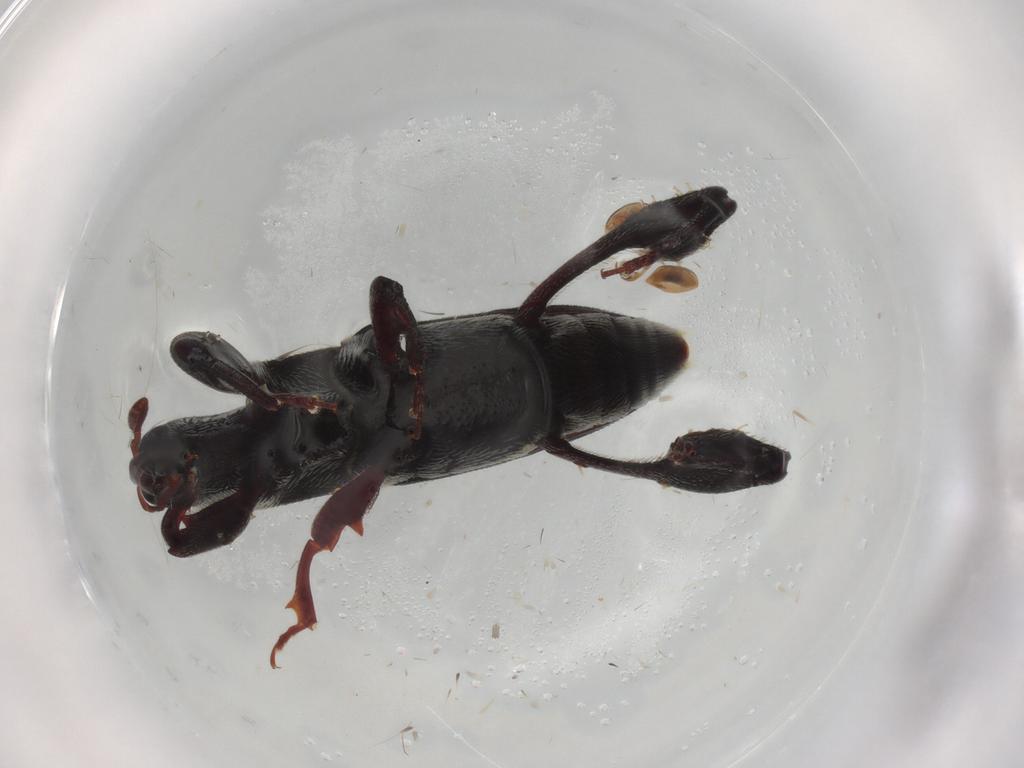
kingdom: Animalia
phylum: Arthropoda
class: Insecta
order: Coleoptera
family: Curculionidae
